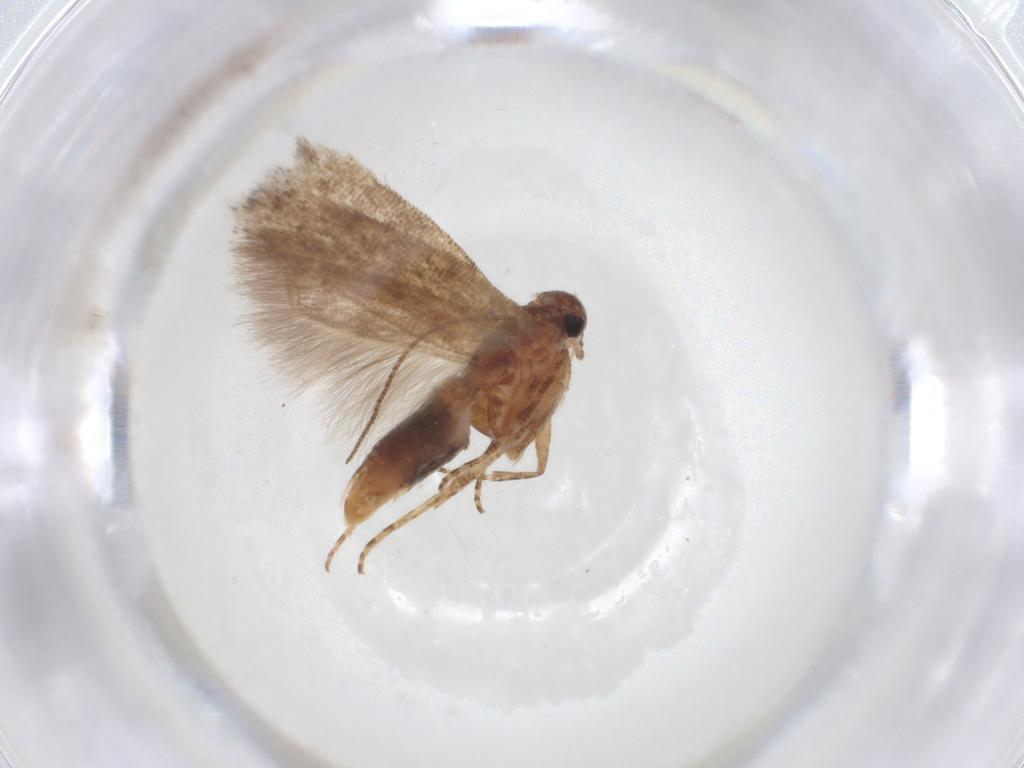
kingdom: Animalia
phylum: Arthropoda
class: Insecta
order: Lepidoptera
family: Gelechiidae
